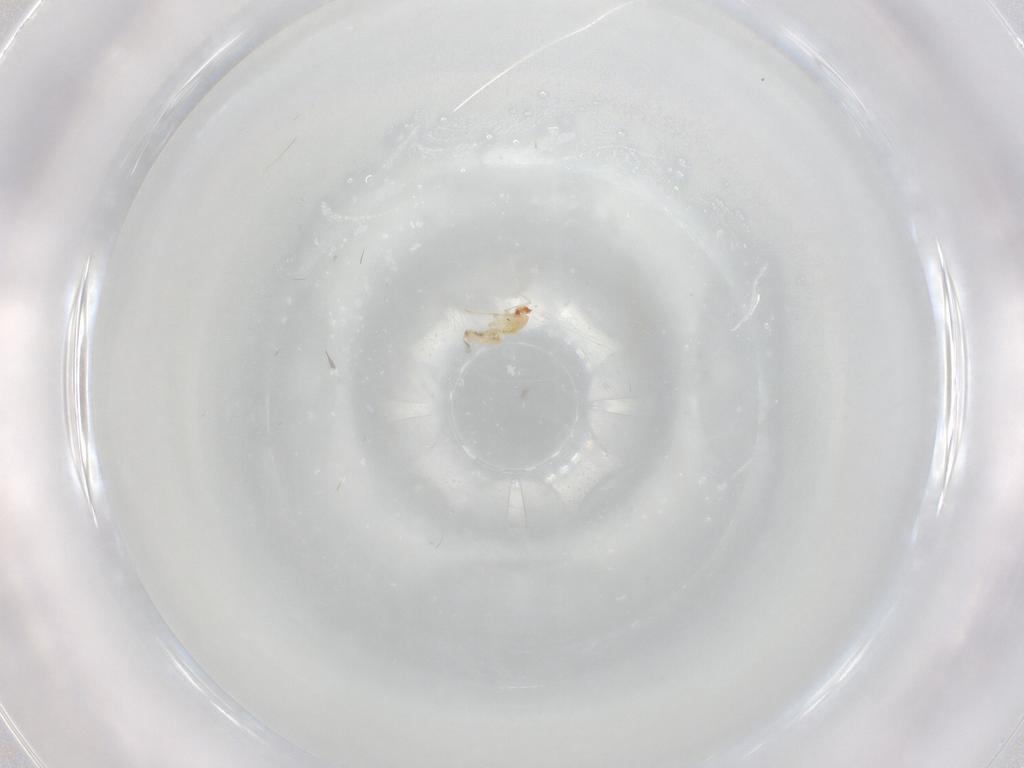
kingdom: Animalia
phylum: Arthropoda
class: Insecta
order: Diptera
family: Cecidomyiidae
